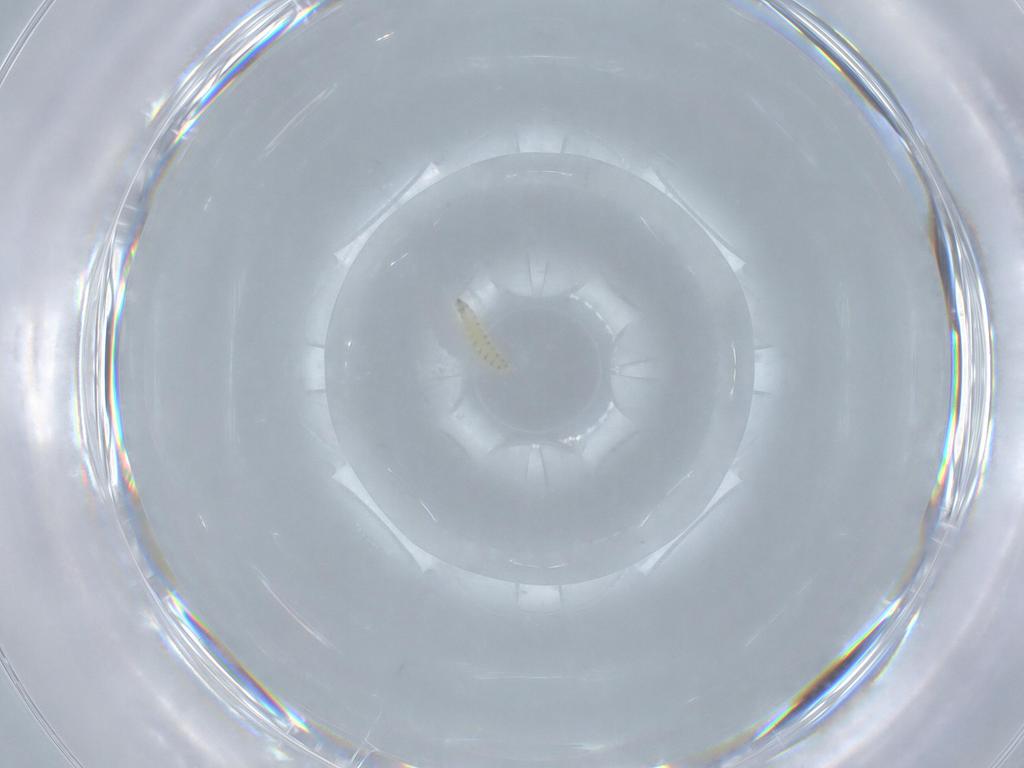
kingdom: Animalia
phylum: Arthropoda
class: Insecta
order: Diptera
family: Sarcophagidae
